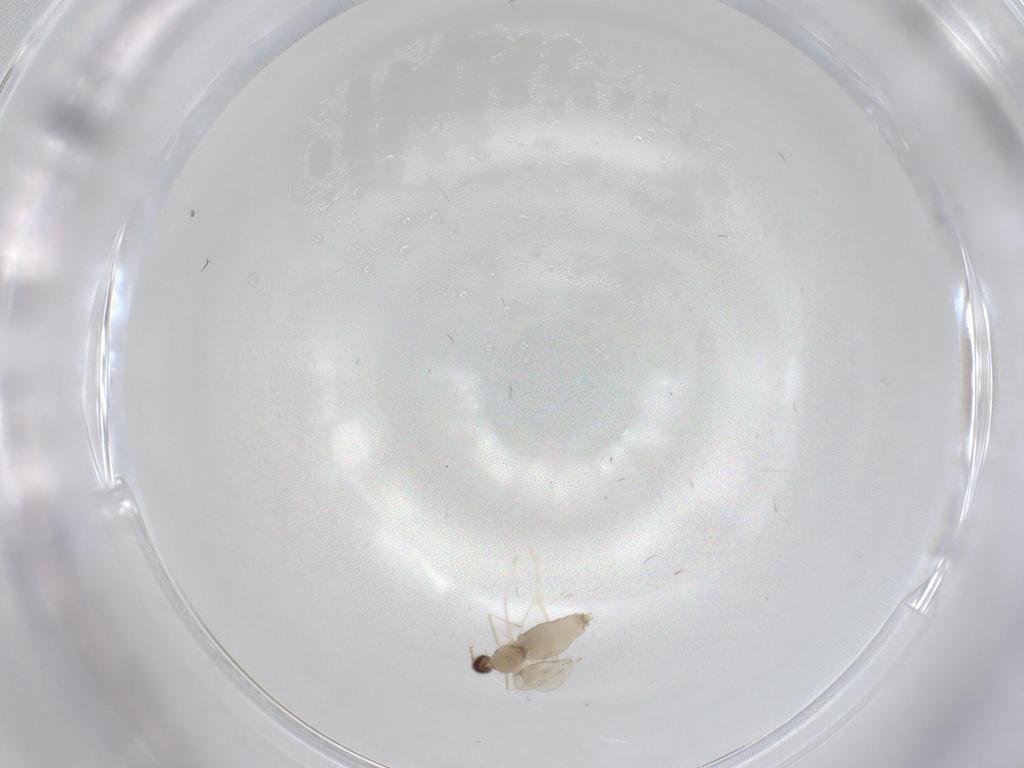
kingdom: Animalia
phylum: Arthropoda
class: Insecta
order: Diptera
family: Cecidomyiidae
